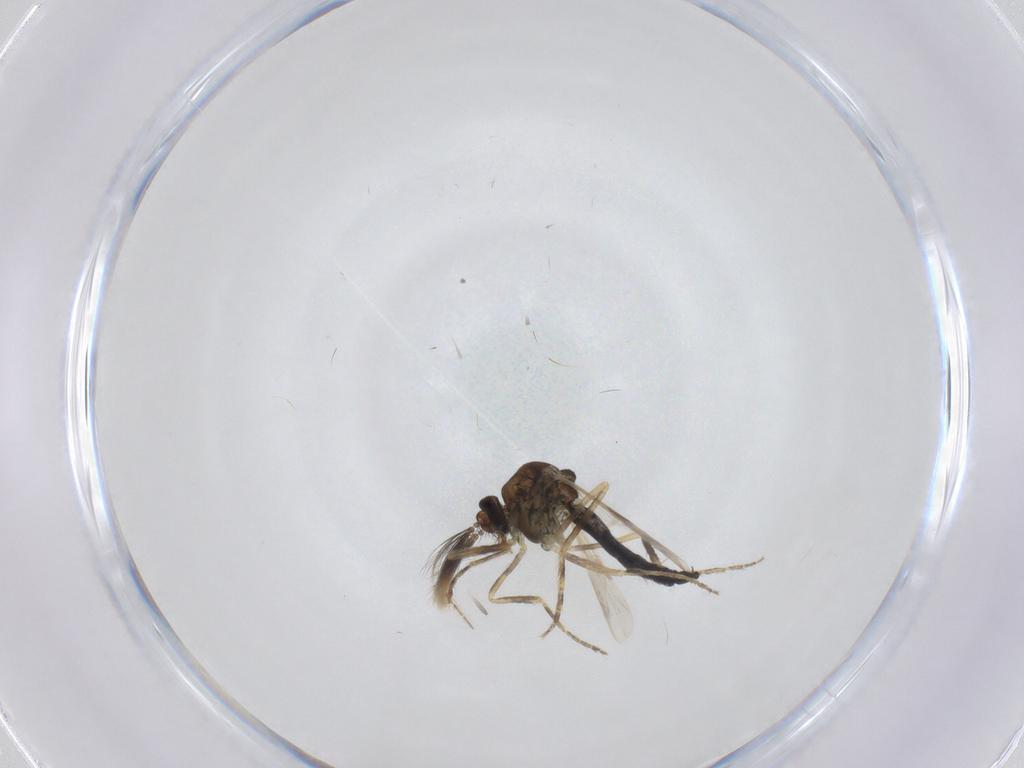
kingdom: Animalia
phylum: Arthropoda
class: Insecta
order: Diptera
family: Ceratopogonidae
